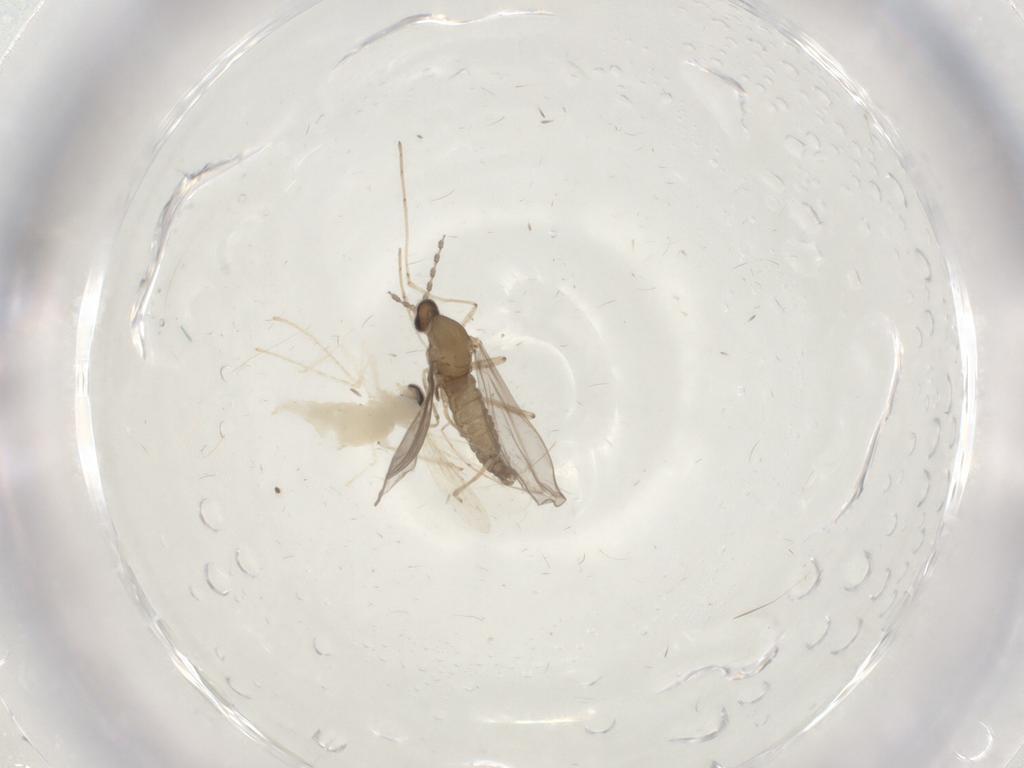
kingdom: Animalia
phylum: Arthropoda
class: Insecta
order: Diptera
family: Cecidomyiidae
